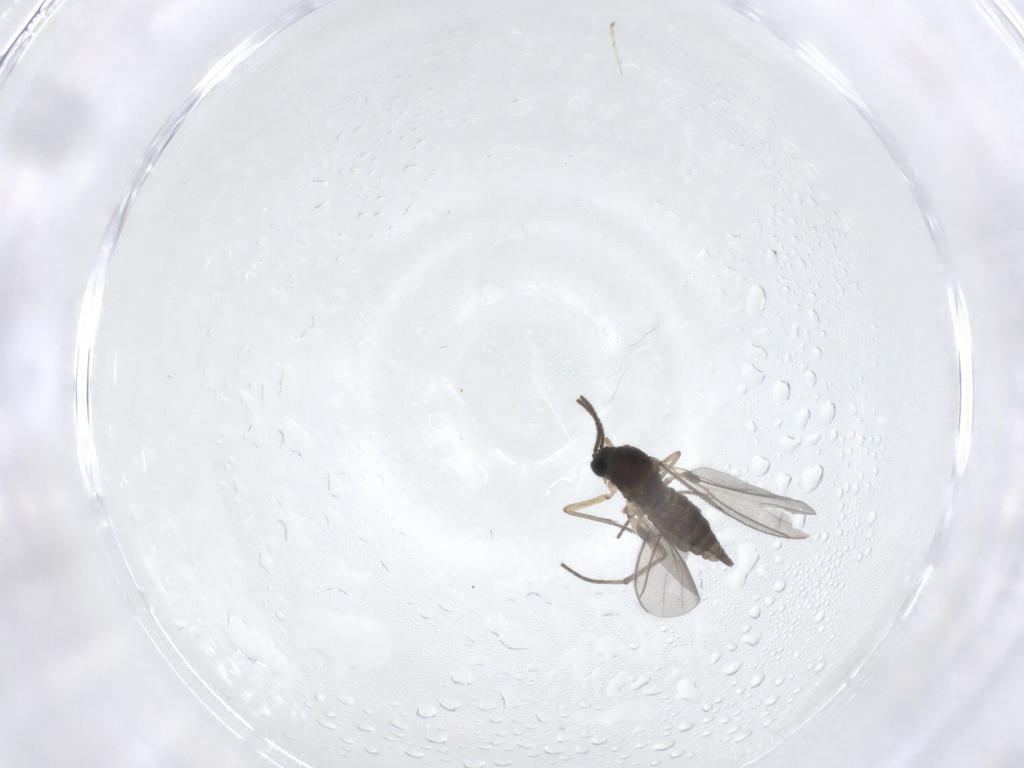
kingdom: Animalia
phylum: Arthropoda
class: Insecta
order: Diptera
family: Sciaridae
